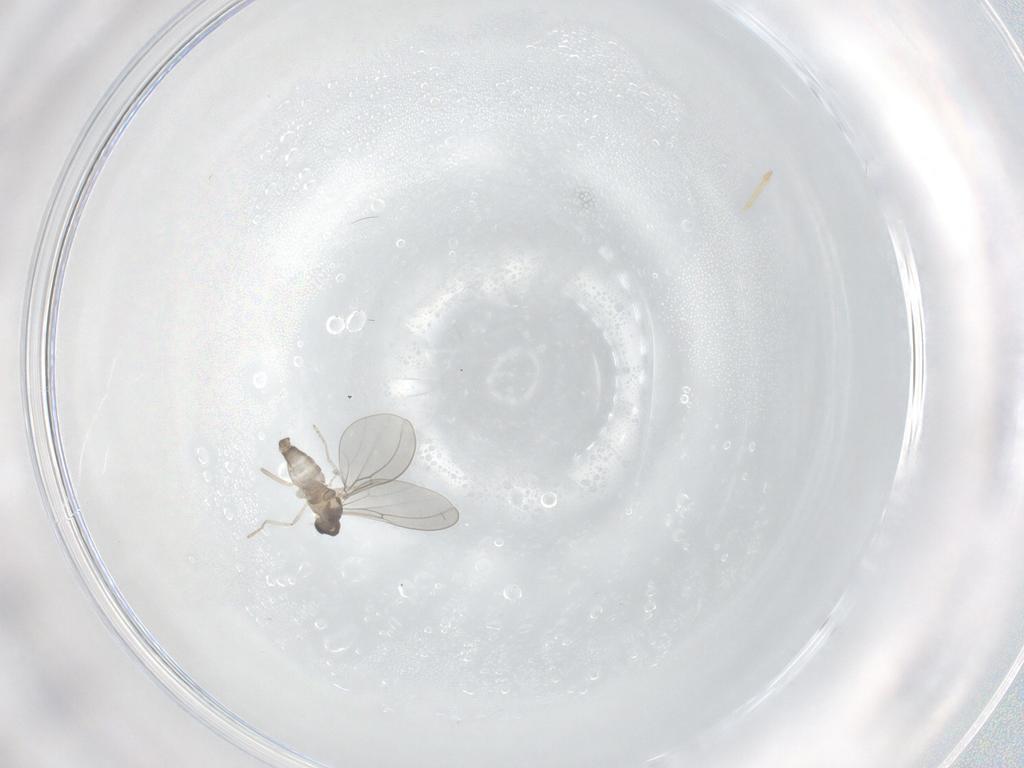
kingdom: Animalia
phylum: Arthropoda
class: Insecta
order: Diptera
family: Cecidomyiidae
